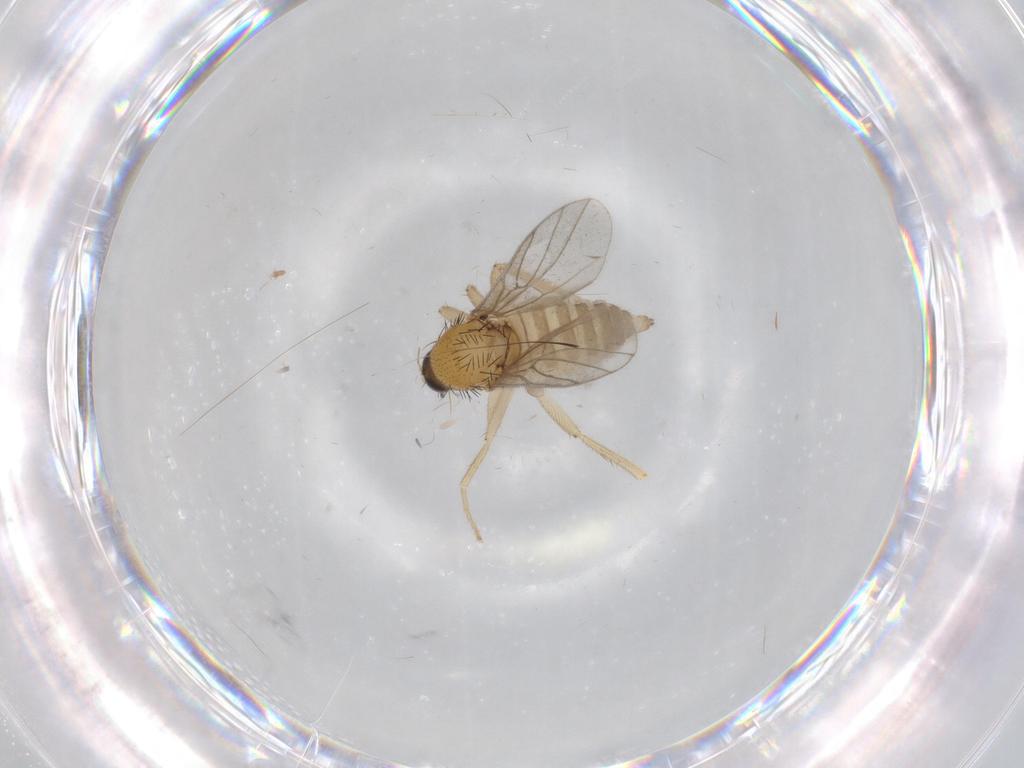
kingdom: Animalia
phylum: Arthropoda
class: Insecta
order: Diptera
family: Hybotidae
